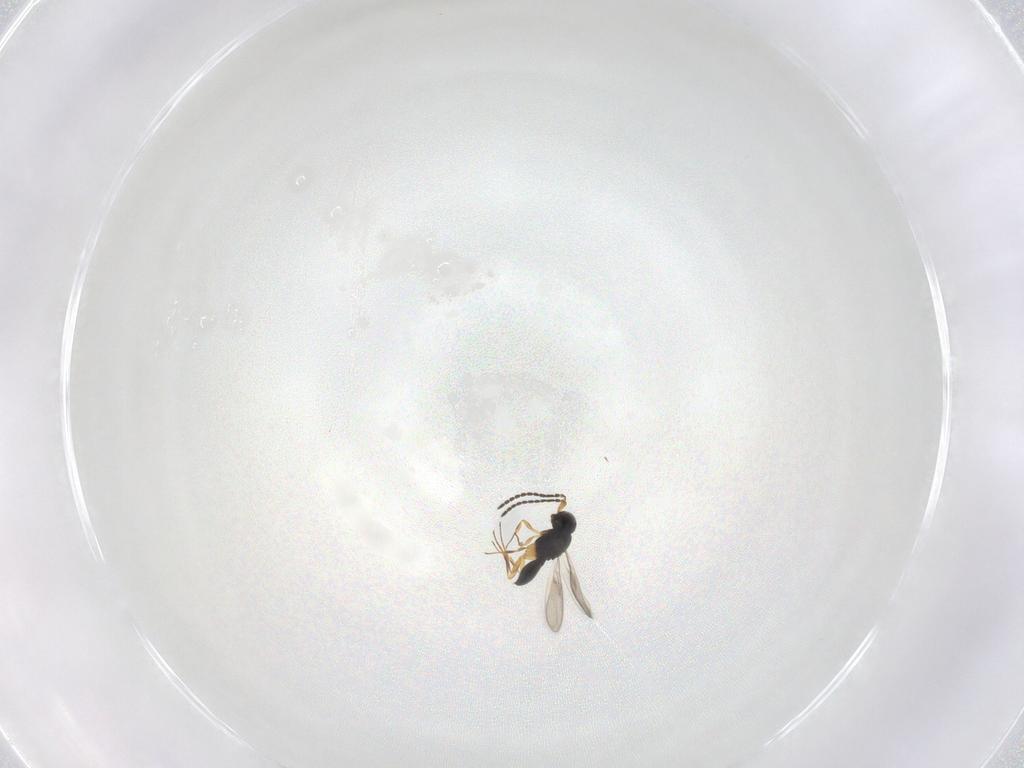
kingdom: Animalia
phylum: Arthropoda
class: Insecta
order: Hymenoptera
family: Scelionidae
